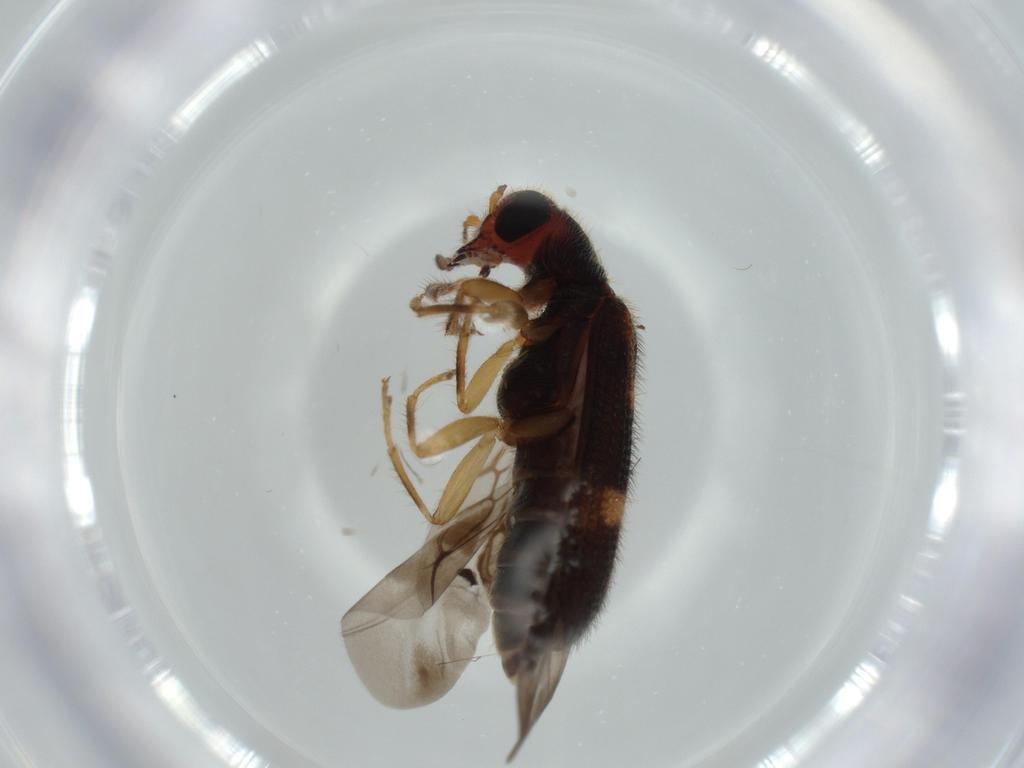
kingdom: Animalia
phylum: Arthropoda
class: Insecta
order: Coleoptera
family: Cleridae
